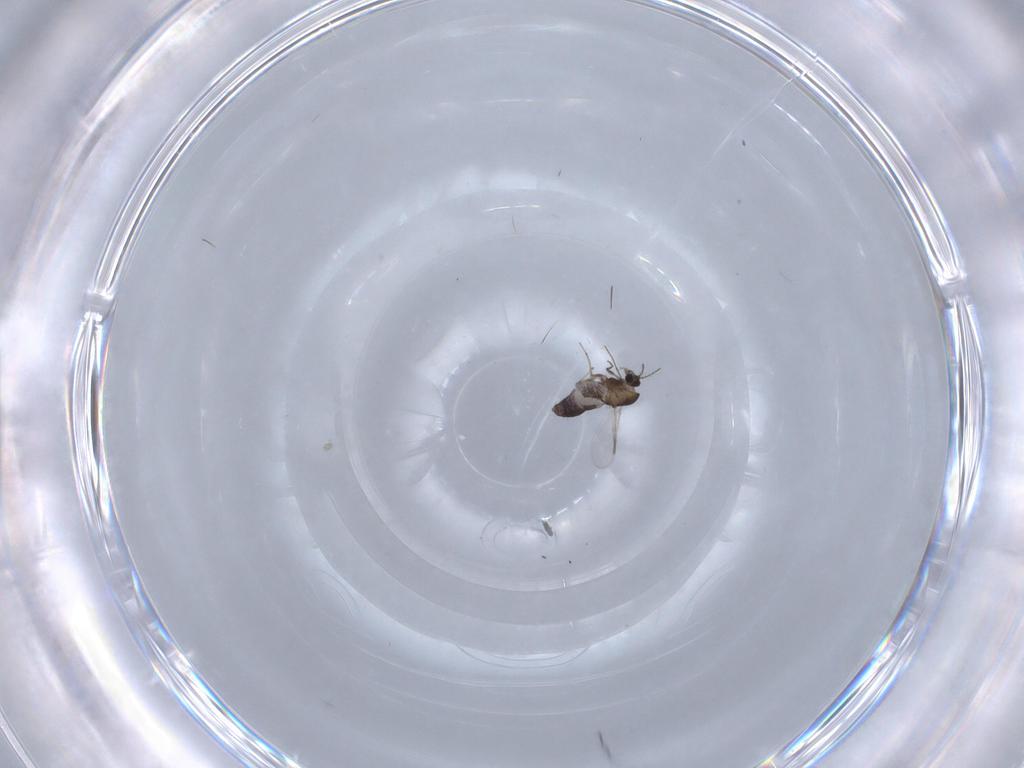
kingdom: Animalia
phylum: Arthropoda
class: Insecta
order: Diptera
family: Chironomidae
